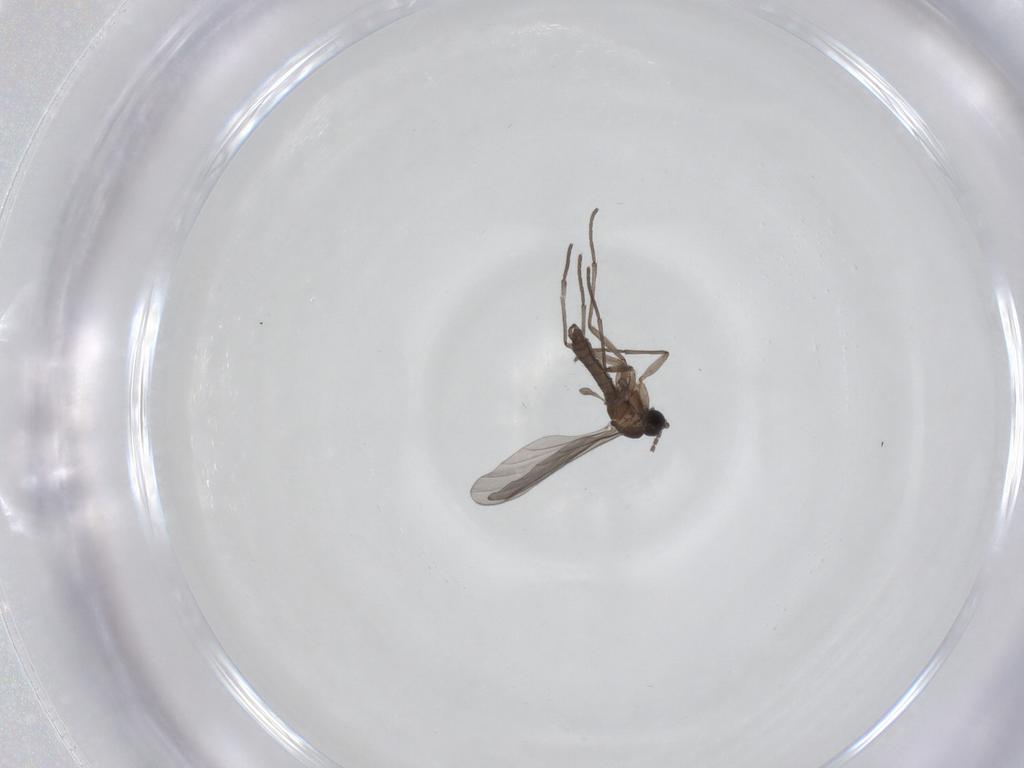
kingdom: Animalia
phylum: Arthropoda
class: Insecta
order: Diptera
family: Sciaridae
